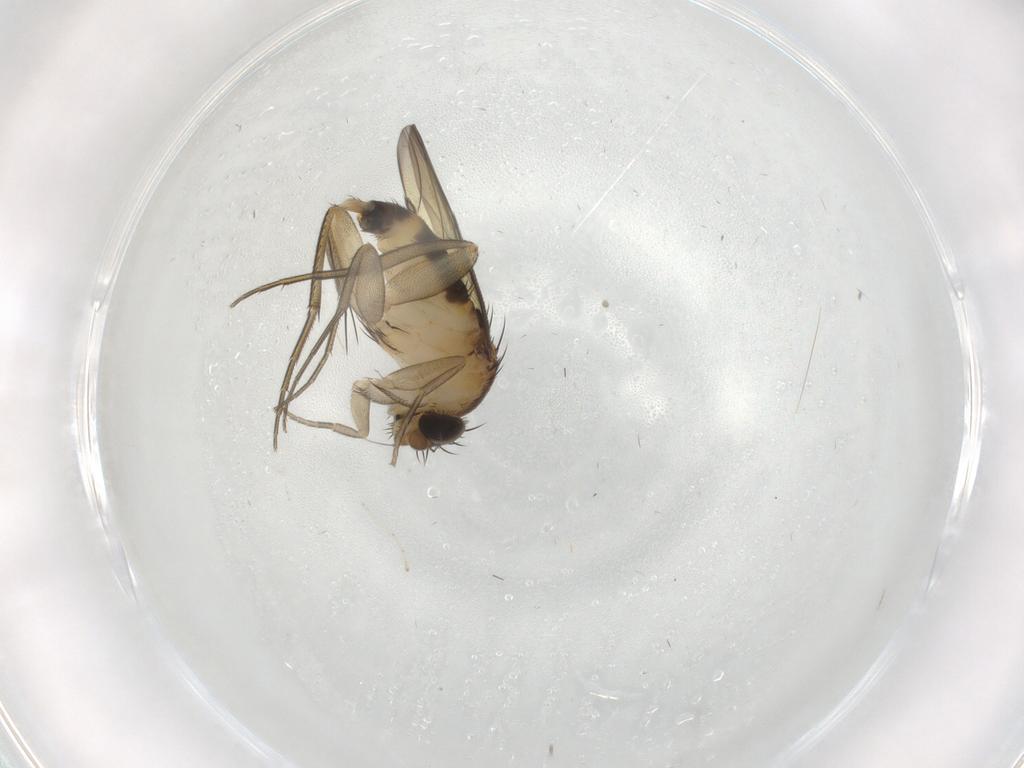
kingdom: Animalia
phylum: Arthropoda
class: Insecta
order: Diptera
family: Cecidomyiidae
